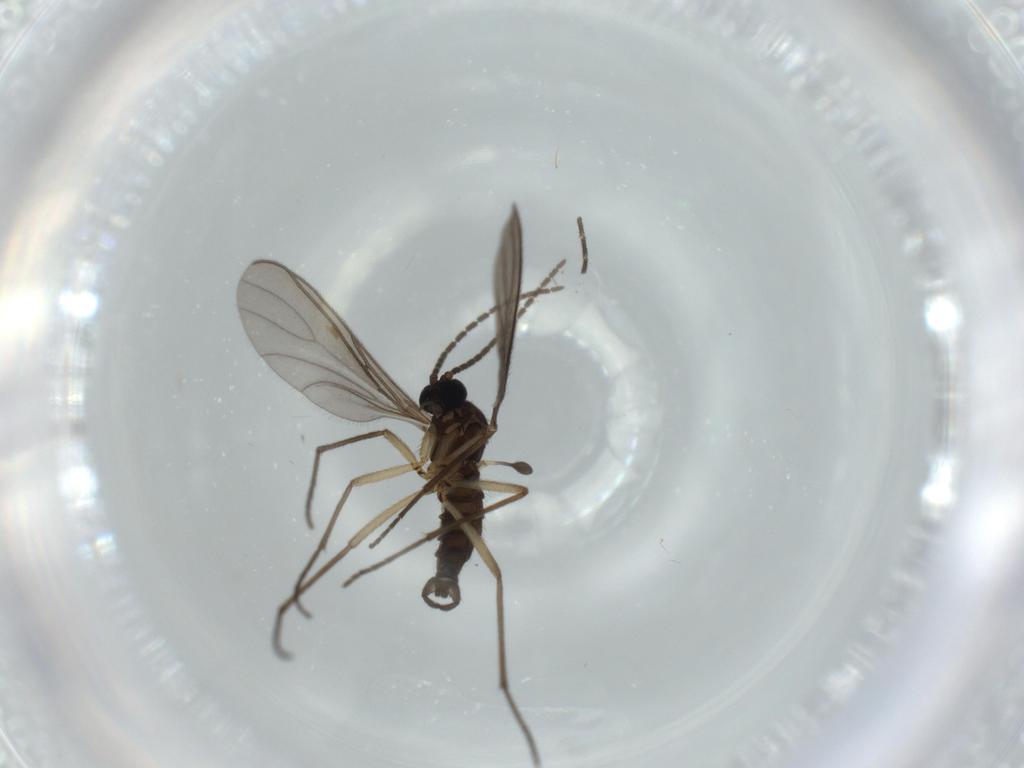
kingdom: Animalia
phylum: Arthropoda
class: Insecta
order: Diptera
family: Sciaridae
